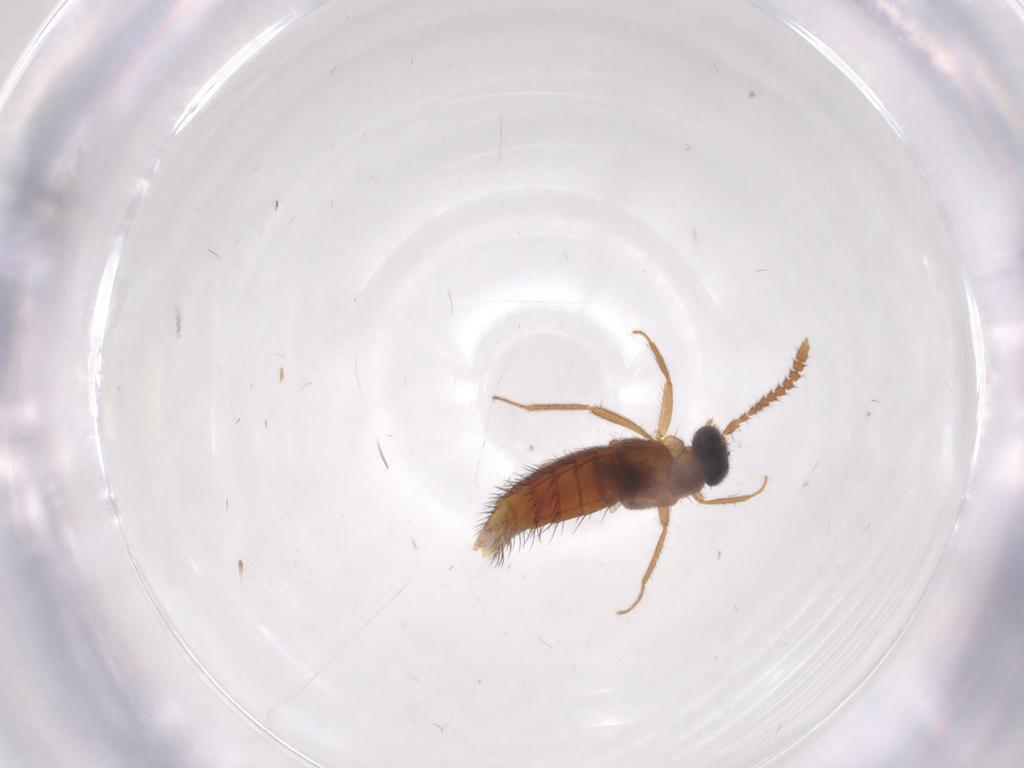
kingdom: Animalia
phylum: Arthropoda
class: Insecta
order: Coleoptera
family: Staphylinidae
